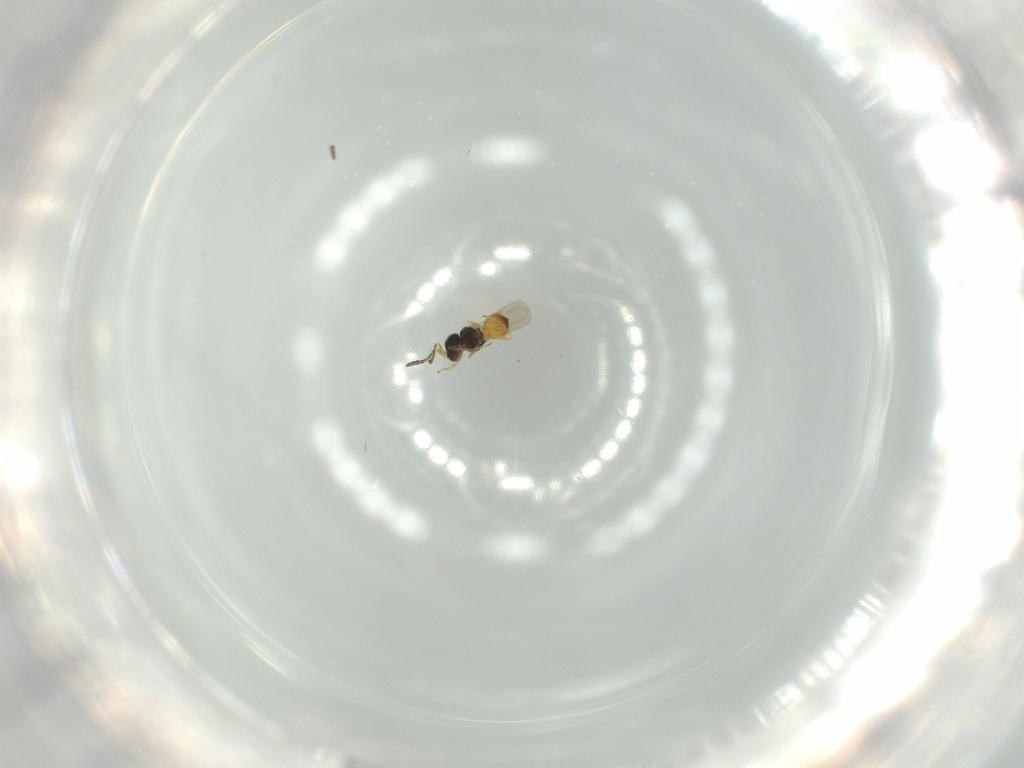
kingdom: Animalia
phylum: Arthropoda
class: Insecta
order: Hymenoptera
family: Scelionidae
